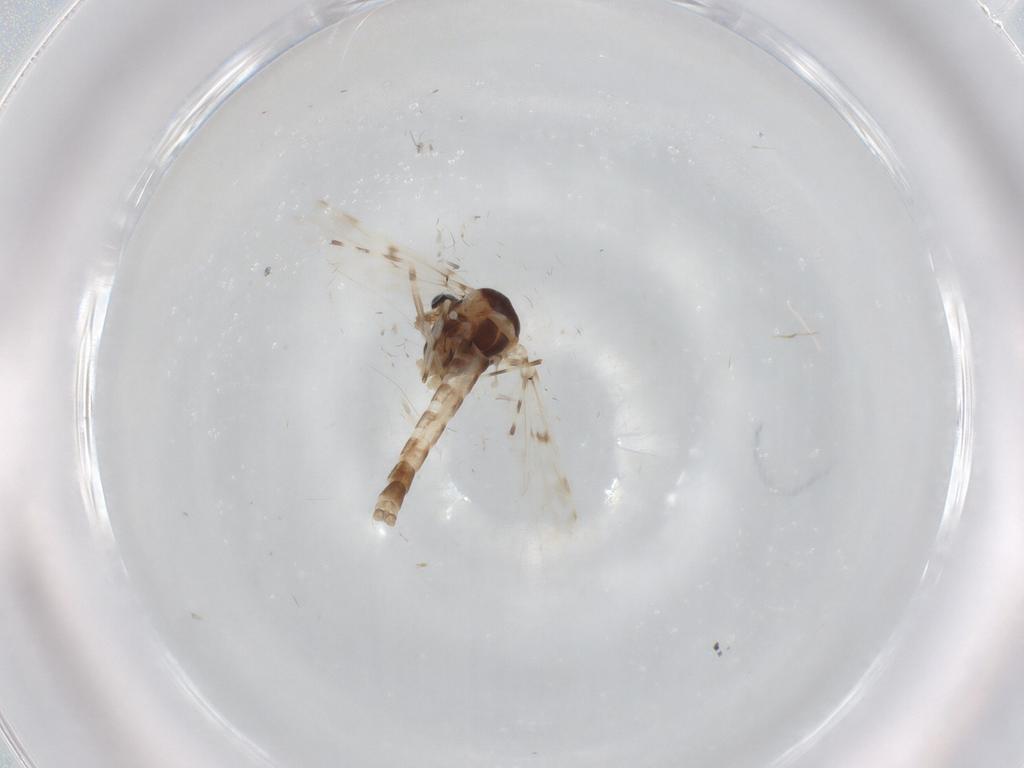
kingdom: Animalia
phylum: Arthropoda
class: Insecta
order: Diptera
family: Chironomidae
